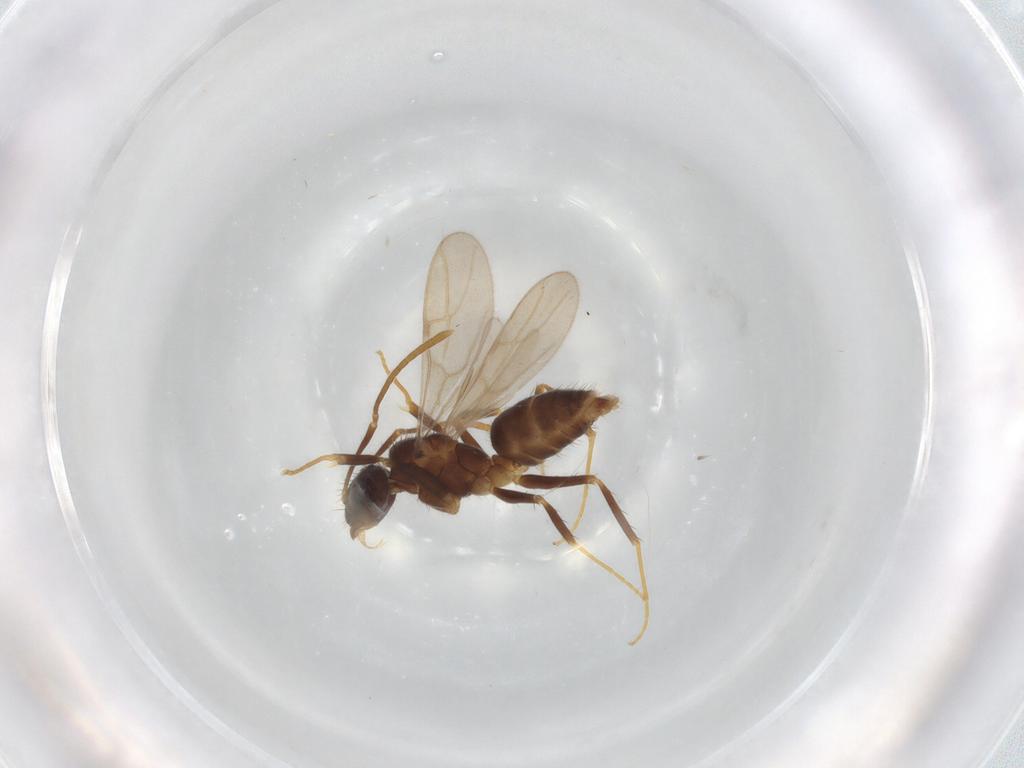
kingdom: Animalia
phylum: Arthropoda
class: Insecta
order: Hymenoptera
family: Formicidae
